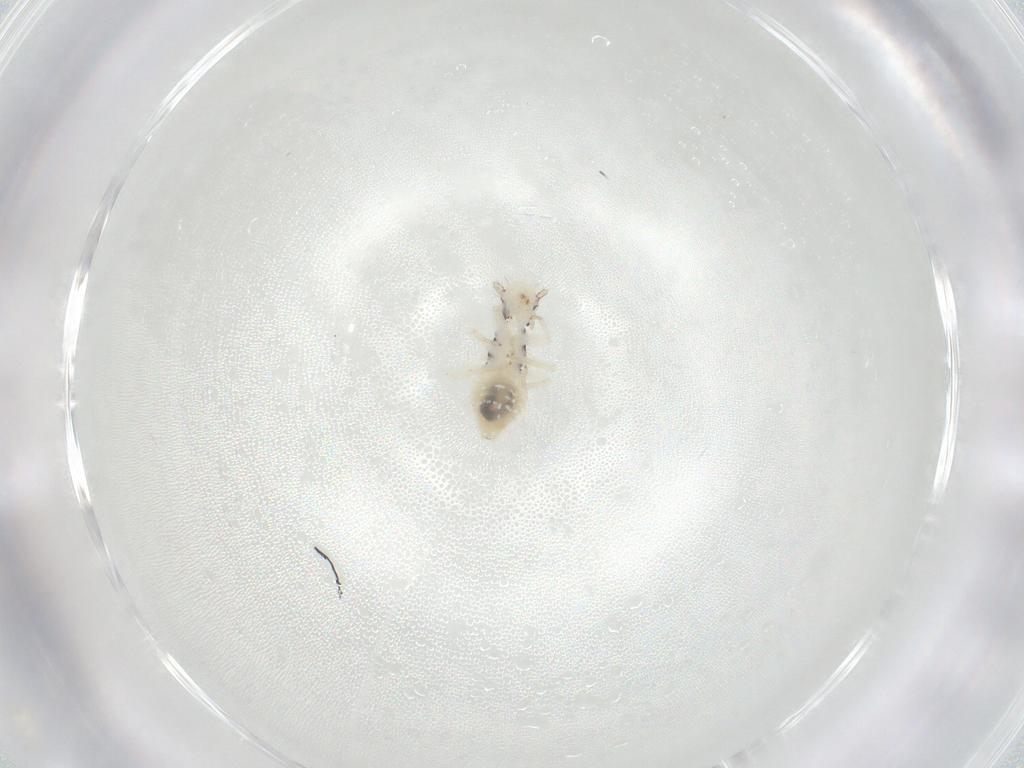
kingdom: Animalia
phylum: Arthropoda
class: Insecta
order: Psocodea
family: Philotarsidae
